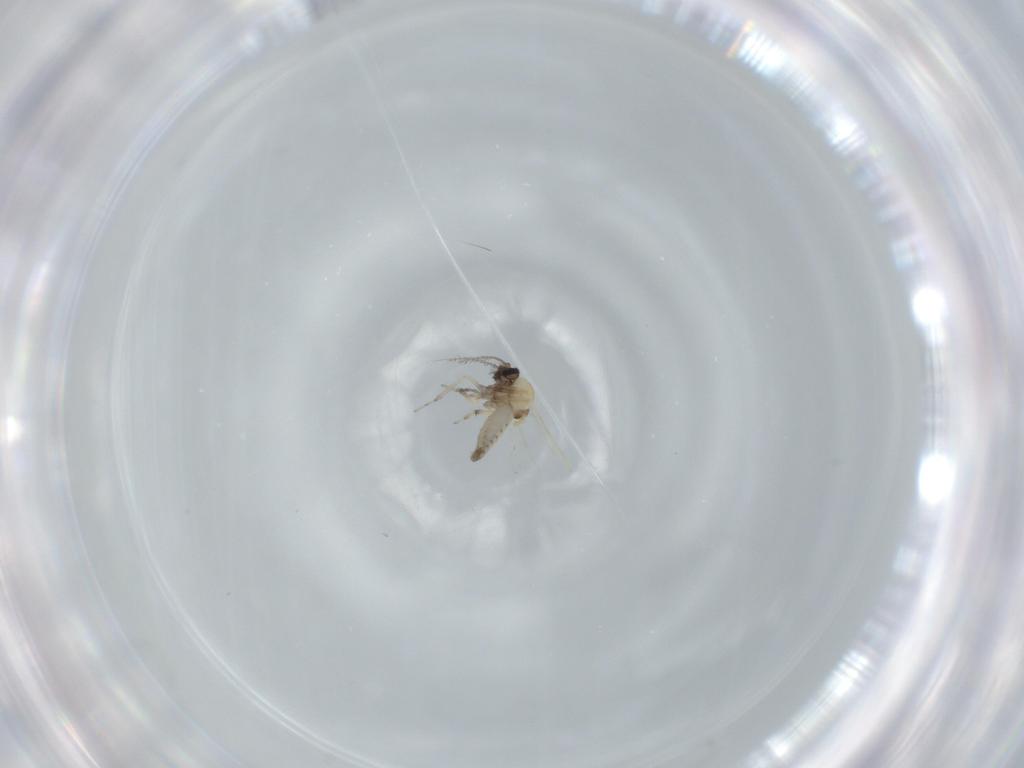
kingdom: Animalia
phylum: Arthropoda
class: Insecta
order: Diptera
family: Ceratopogonidae
